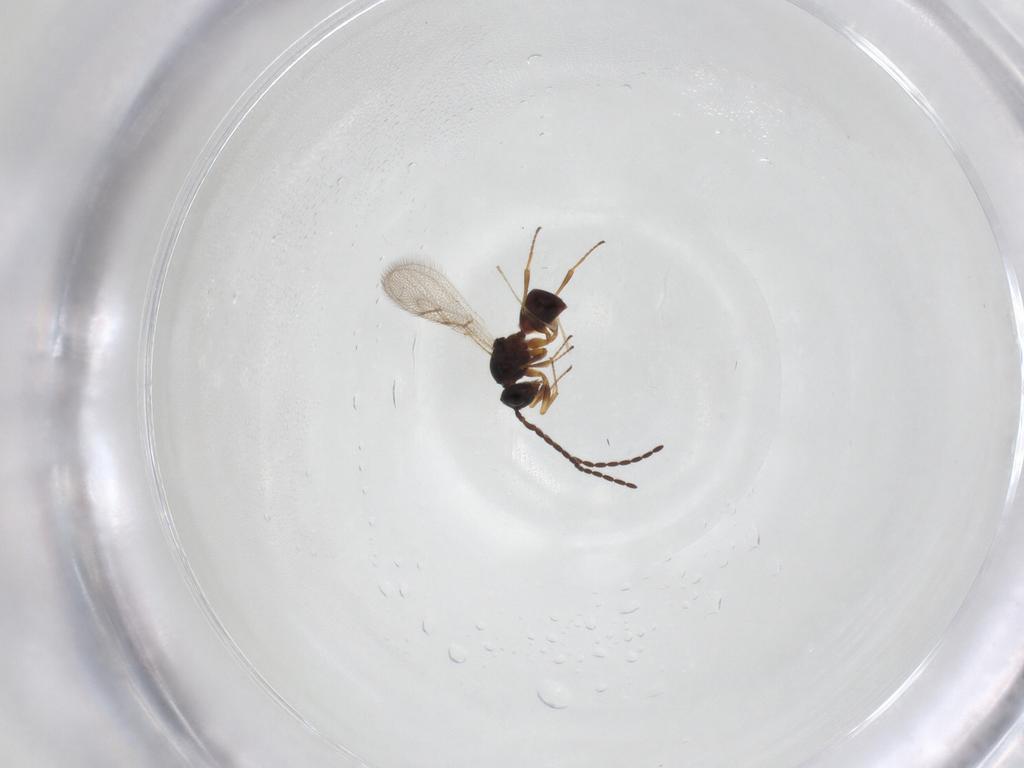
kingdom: Animalia
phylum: Arthropoda
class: Insecta
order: Hymenoptera
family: Figitidae
